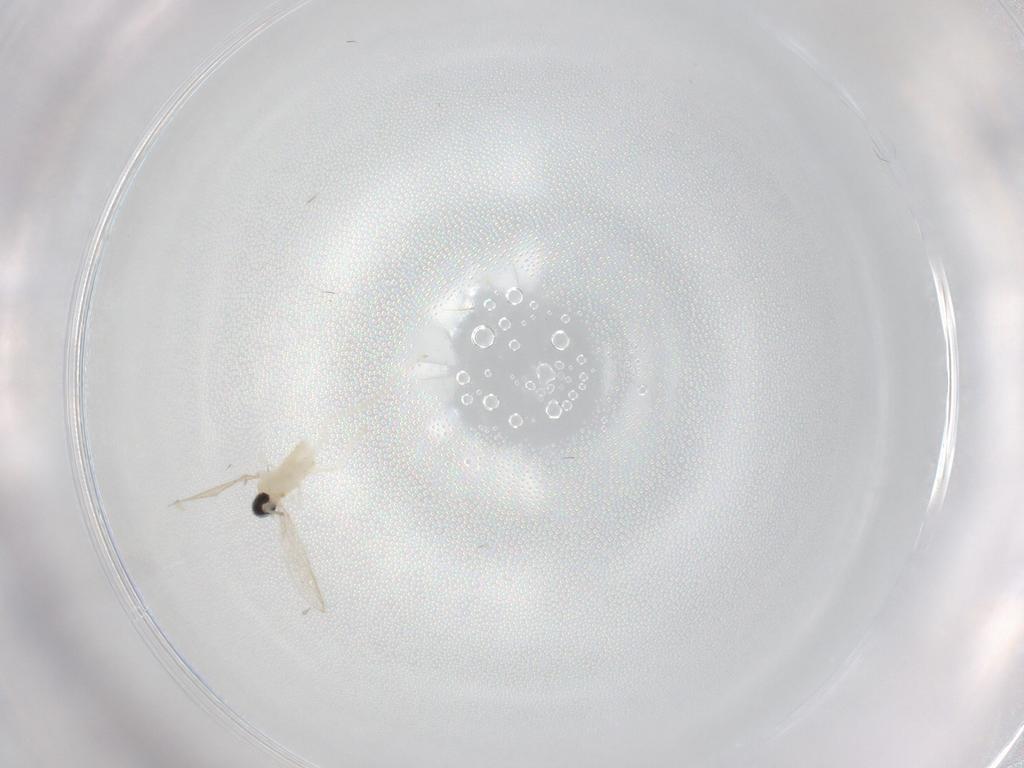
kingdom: Animalia
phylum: Arthropoda
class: Insecta
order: Diptera
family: Cecidomyiidae
